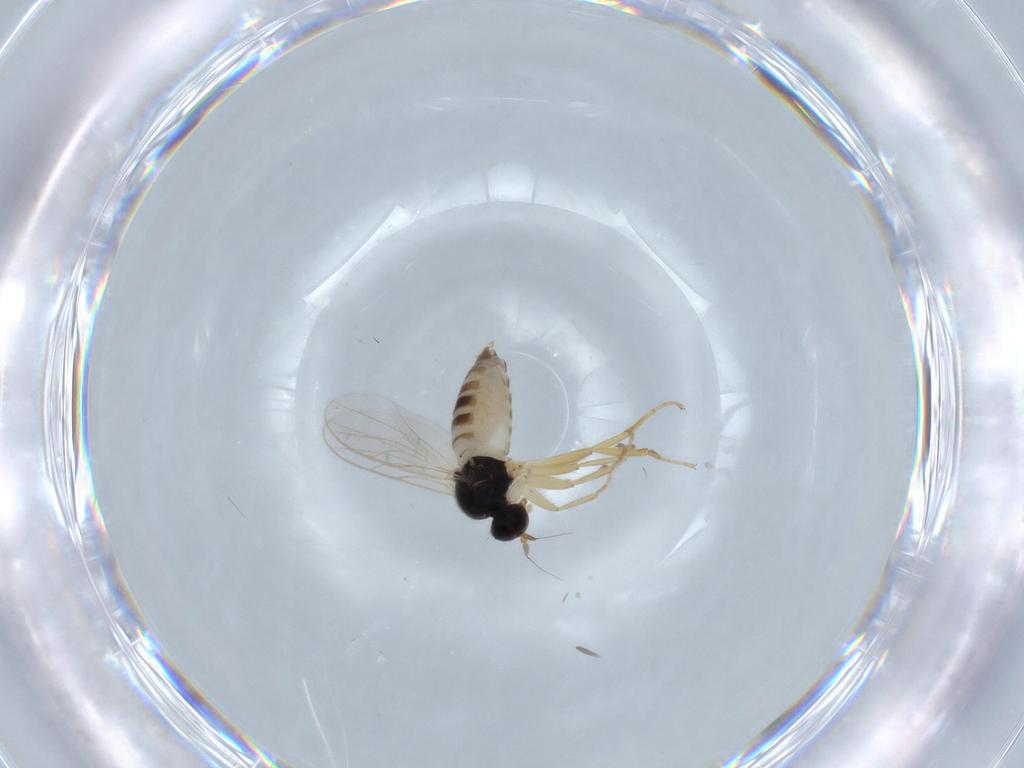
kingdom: Animalia
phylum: Arthropoda
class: Insecta
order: Diptera
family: Hybotidae
